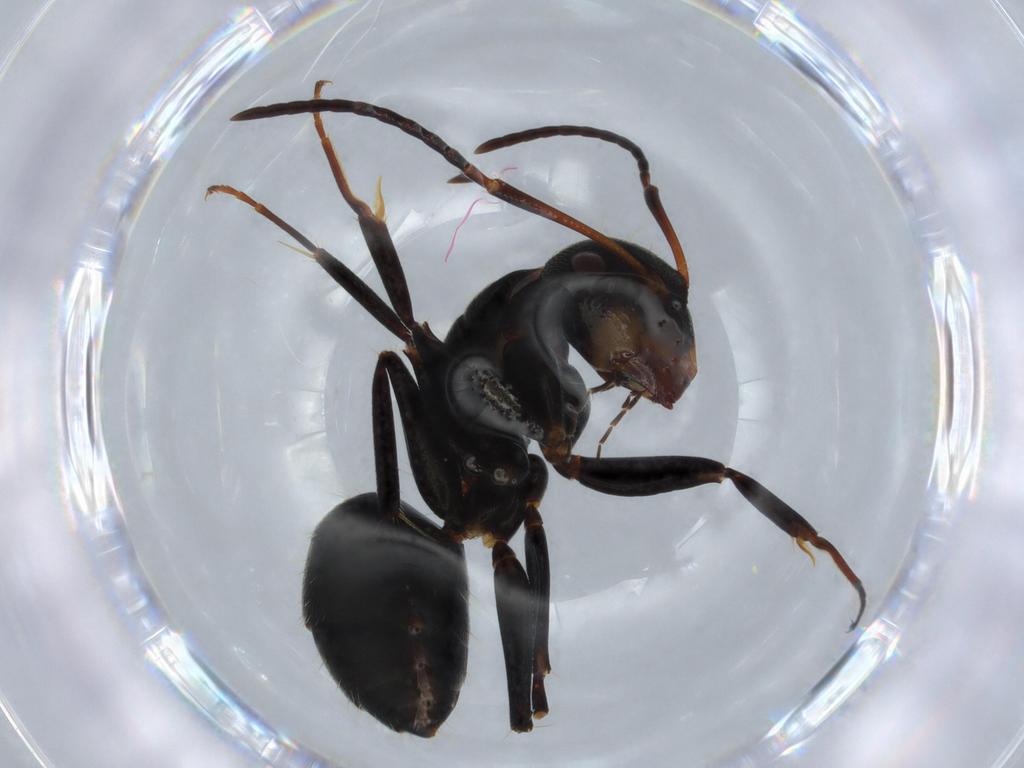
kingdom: Animalia
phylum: Arthropoda
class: Insecta
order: Hymenoptera
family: Formicidae
